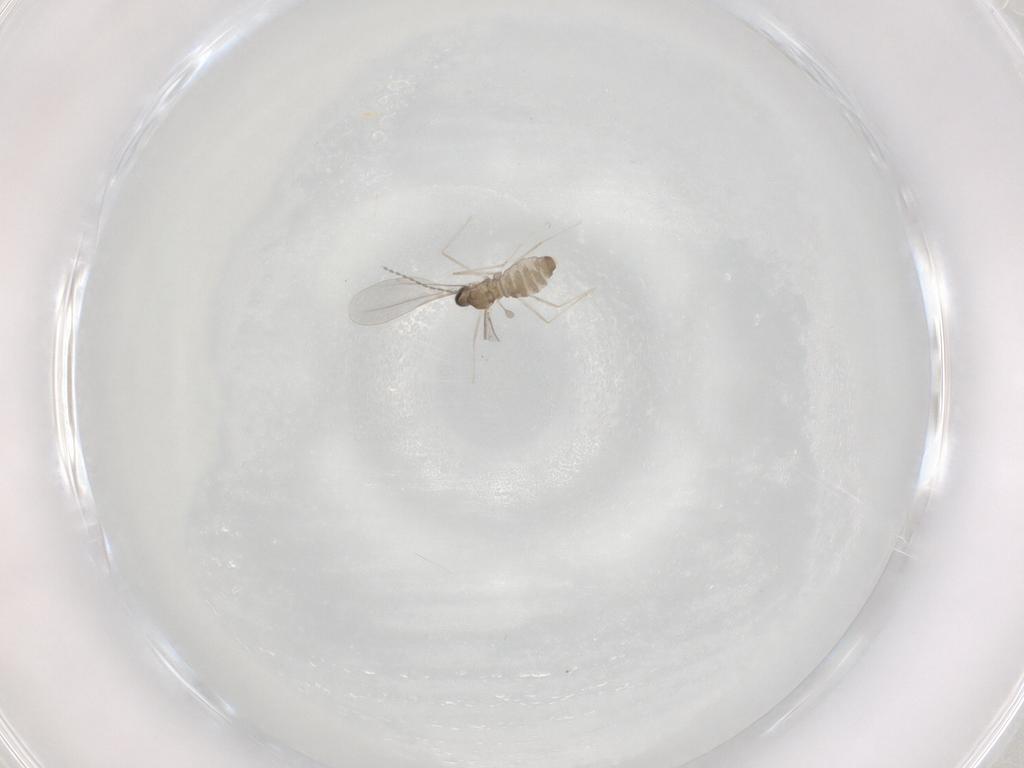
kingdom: Animalia
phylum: Arthropoda
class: Insecta
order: Diptera
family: Cecidomyiidae
